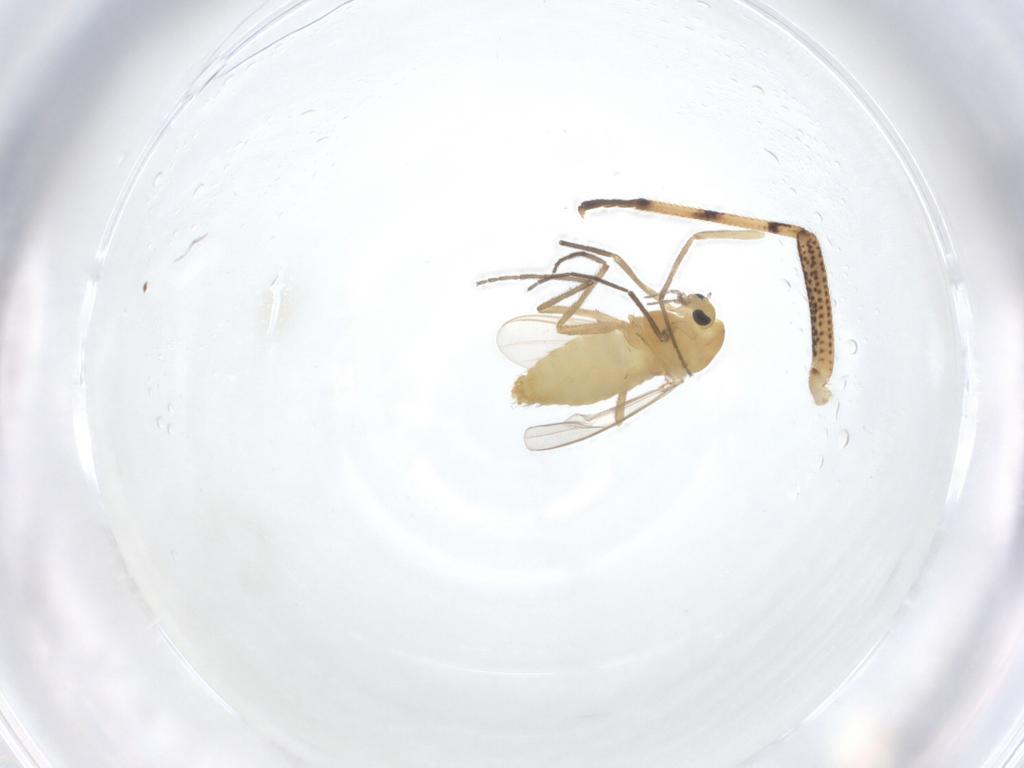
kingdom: Animalia
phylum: Arthropoda
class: Insecta
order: Diptera
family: Chironomidae
